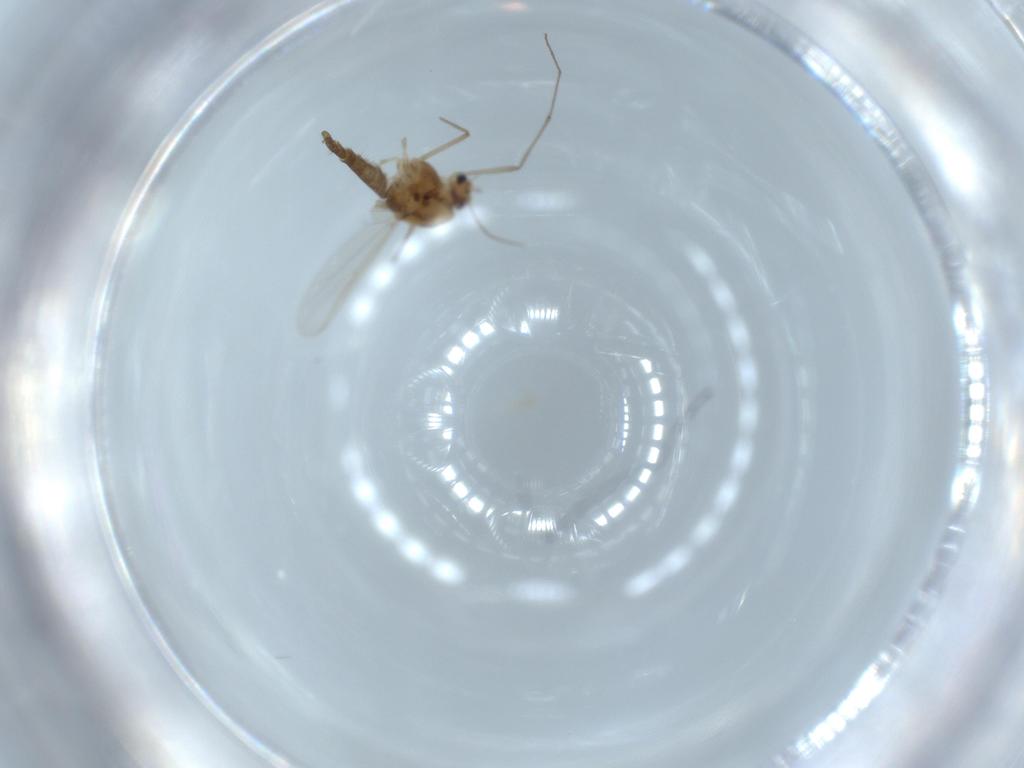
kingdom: Animalia
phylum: Arthropoda
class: Insecta
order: Diptera
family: Chironomidae
